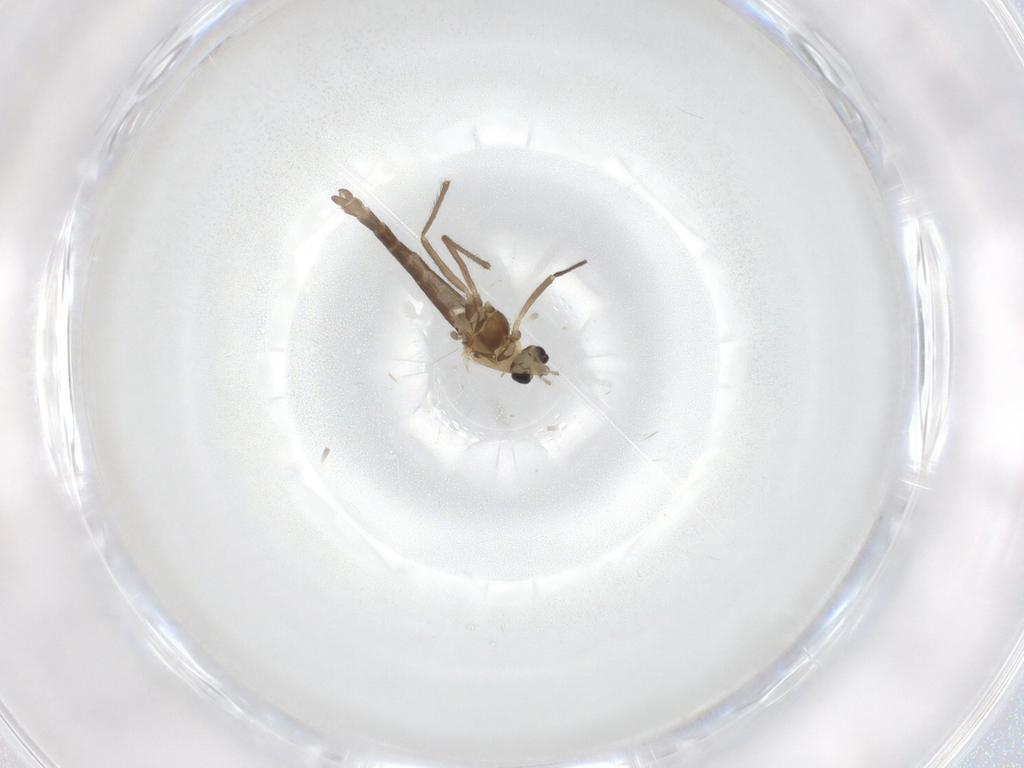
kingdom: Animalia
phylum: Arthropoda
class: Insecta
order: Diptera
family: Chironomidae
